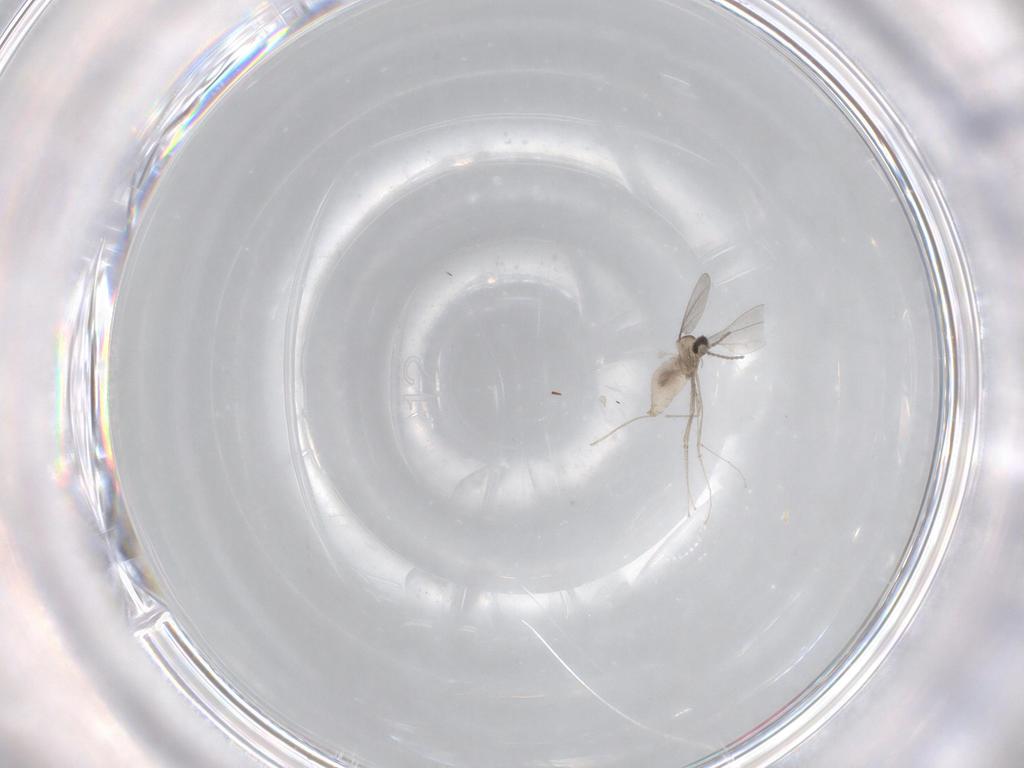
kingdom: Animalia
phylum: Arthropoda
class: Insecta
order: Diptera
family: Cecidomyiidae
